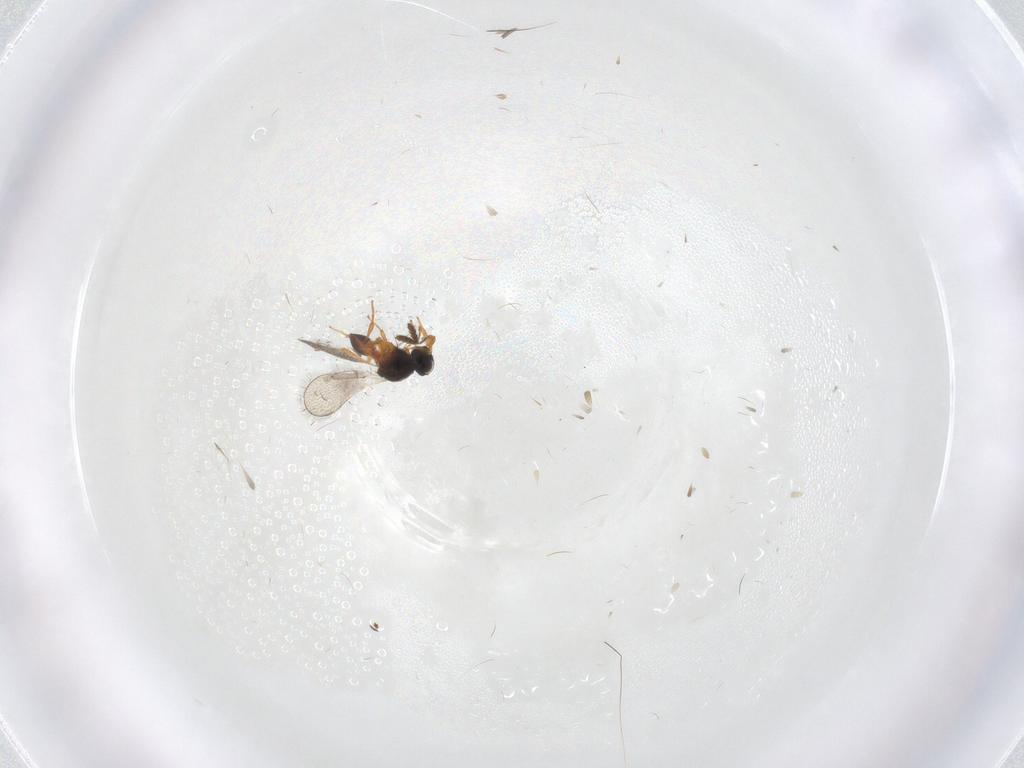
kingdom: Animalia
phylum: Arthropoda
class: Insecta
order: Hymenoptera
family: Platygastridae
